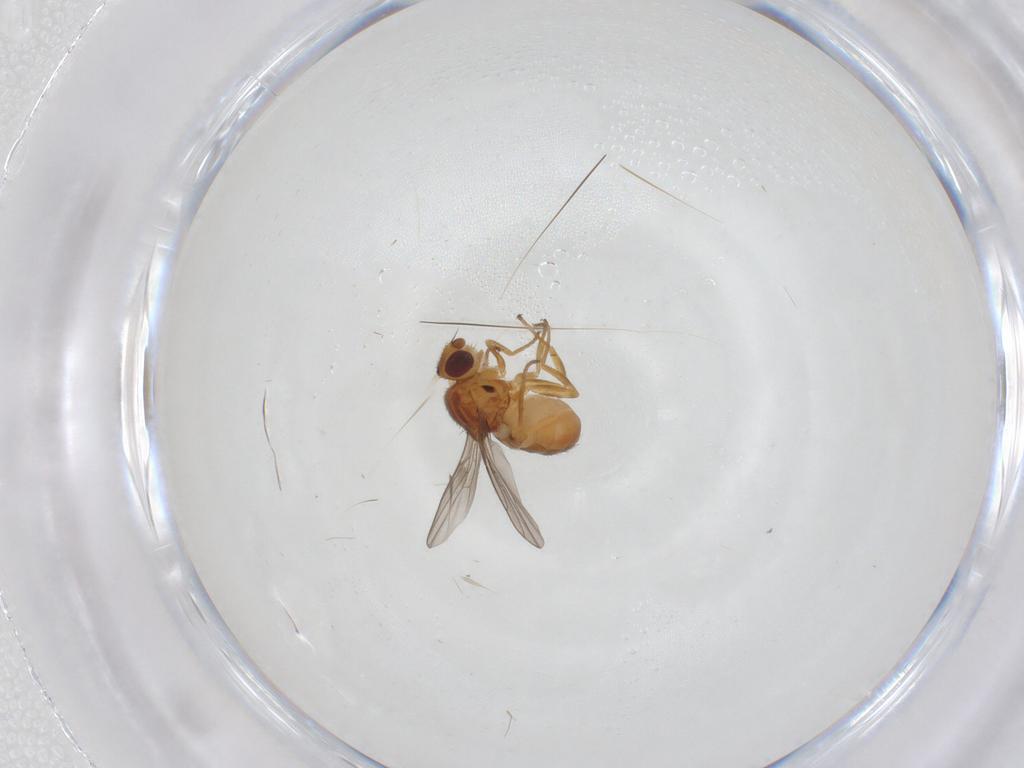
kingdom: Animalia
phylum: Arthropoda
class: Insecta
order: Diptera
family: Chloropidae
